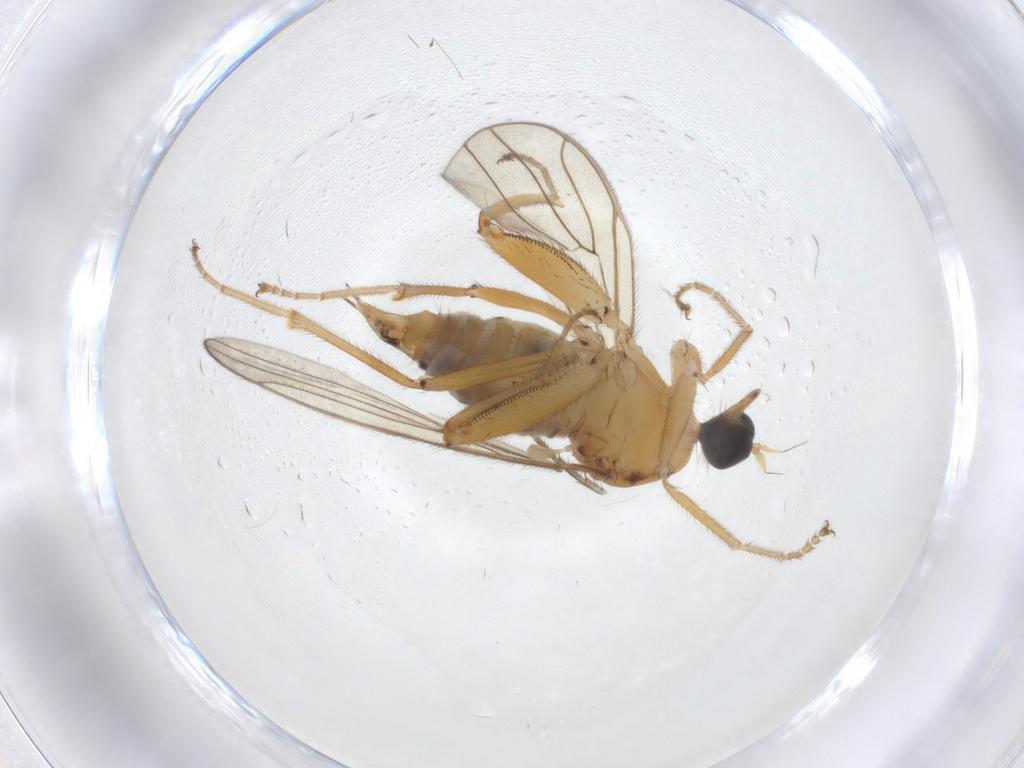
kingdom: Animalia
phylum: Arthropoda
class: Insecta
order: Diptera
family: Hybotidae
